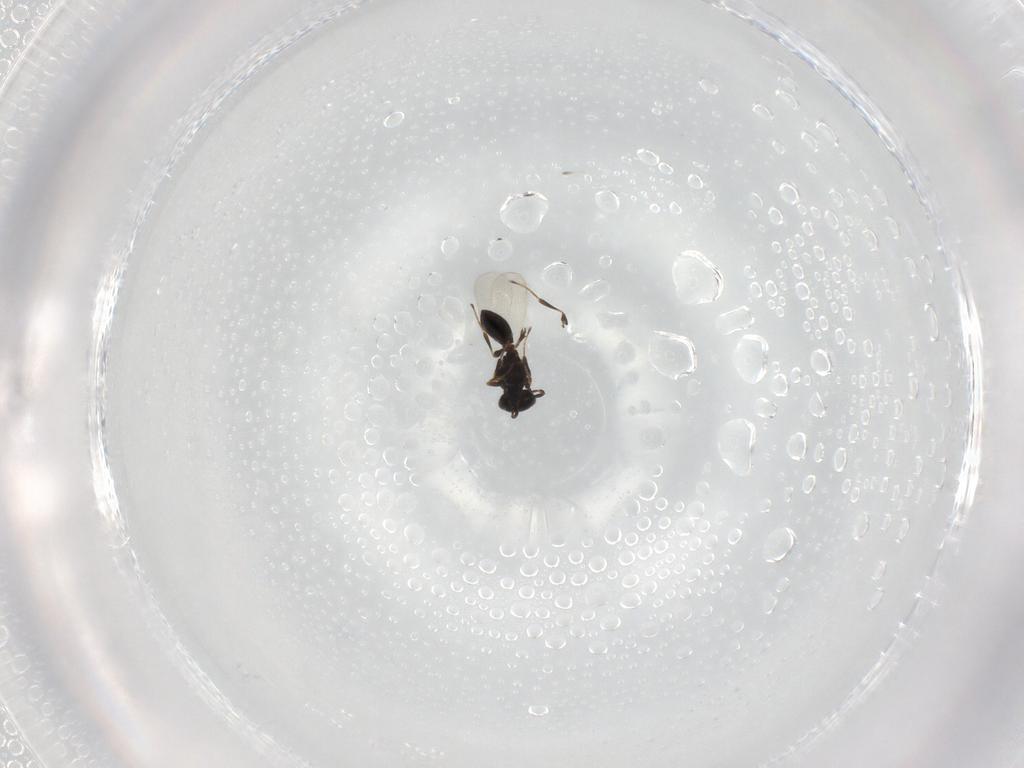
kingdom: Animalia
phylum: Arthropoda
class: Insecta
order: Hymenoptera
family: Platygastridae
